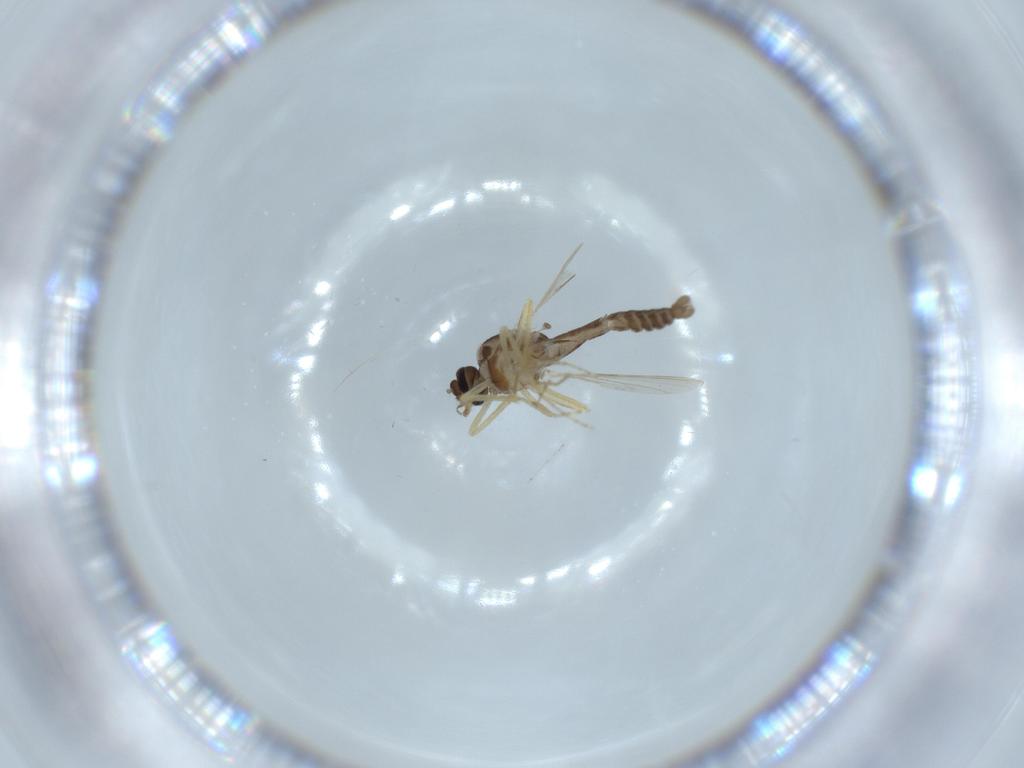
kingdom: Animalia
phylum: Arthropoda
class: Insecta
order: Diptera
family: Ceratopogonidae
